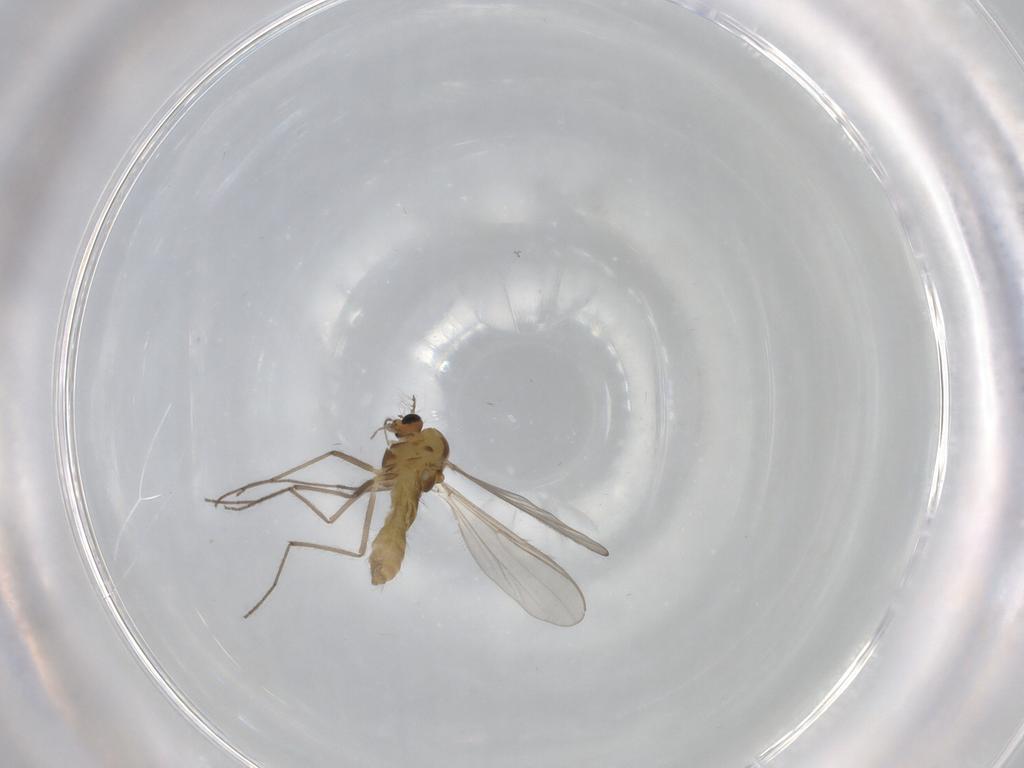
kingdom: Animalia
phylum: Arthropoda
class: Insecta
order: Diptera
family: Chironomidae
